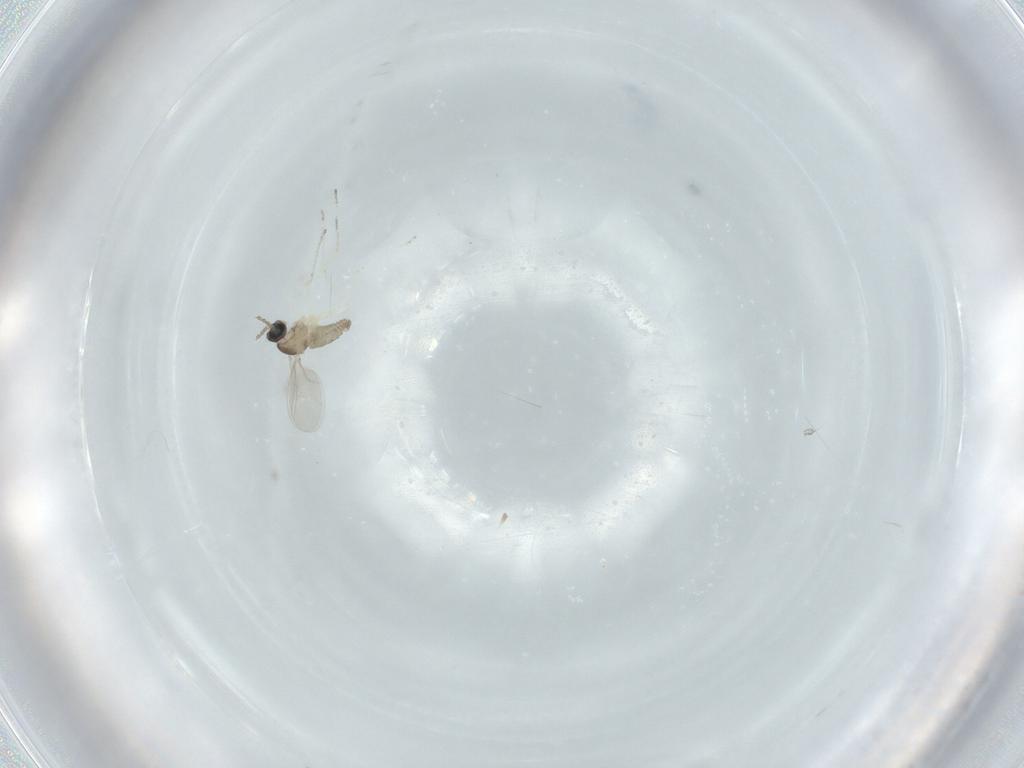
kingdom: Animalia
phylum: Arthropoda
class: Insecta
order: Diptera
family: Cecidomyiidae
